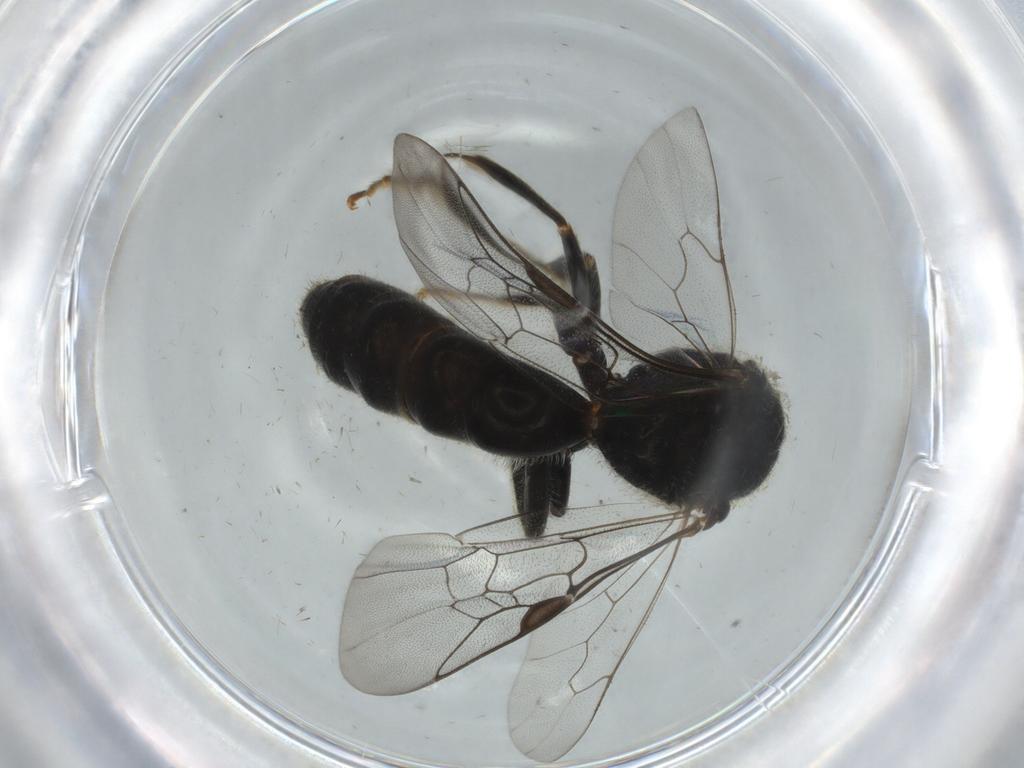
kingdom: Animalia
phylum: Arthropoda
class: Insecta
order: Hymenoptera
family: Halictidae
